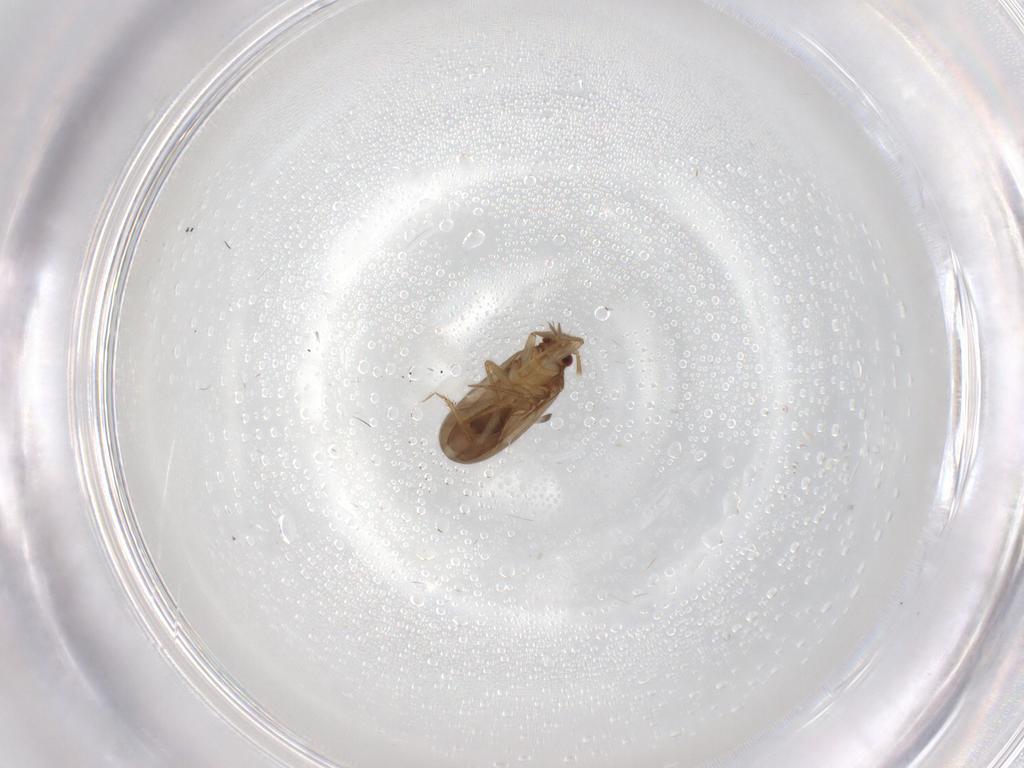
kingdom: Animalia
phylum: Arthropoda
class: Insecta
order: Hemiptera
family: Ceratocombidae
